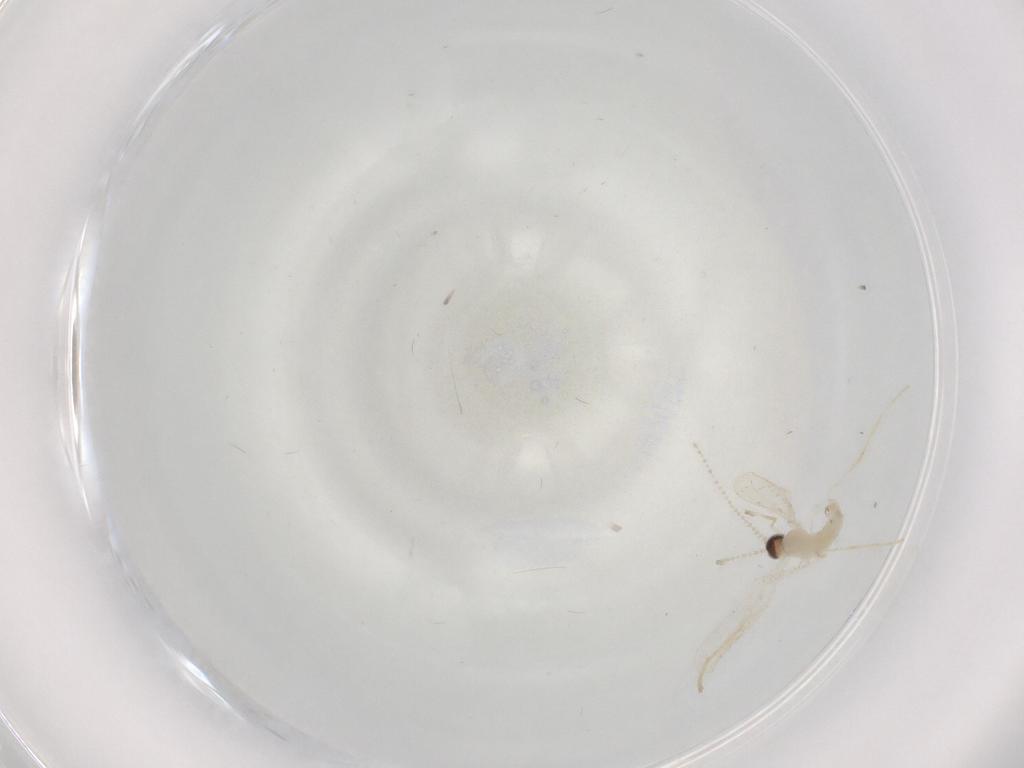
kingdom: Animalia
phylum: Arthropoda
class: Insecta
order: Diptera
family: Cecidomyiidae
